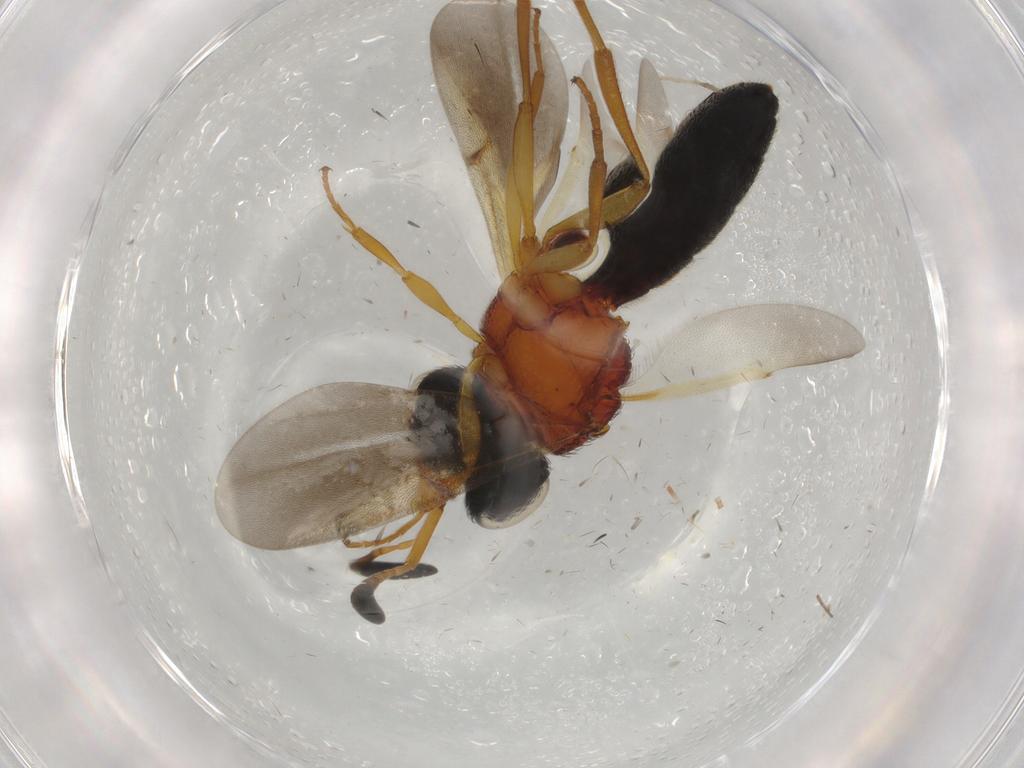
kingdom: Animalia
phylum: Arthropoda
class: Insecta
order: Hymenoptera
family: Scelionidae
